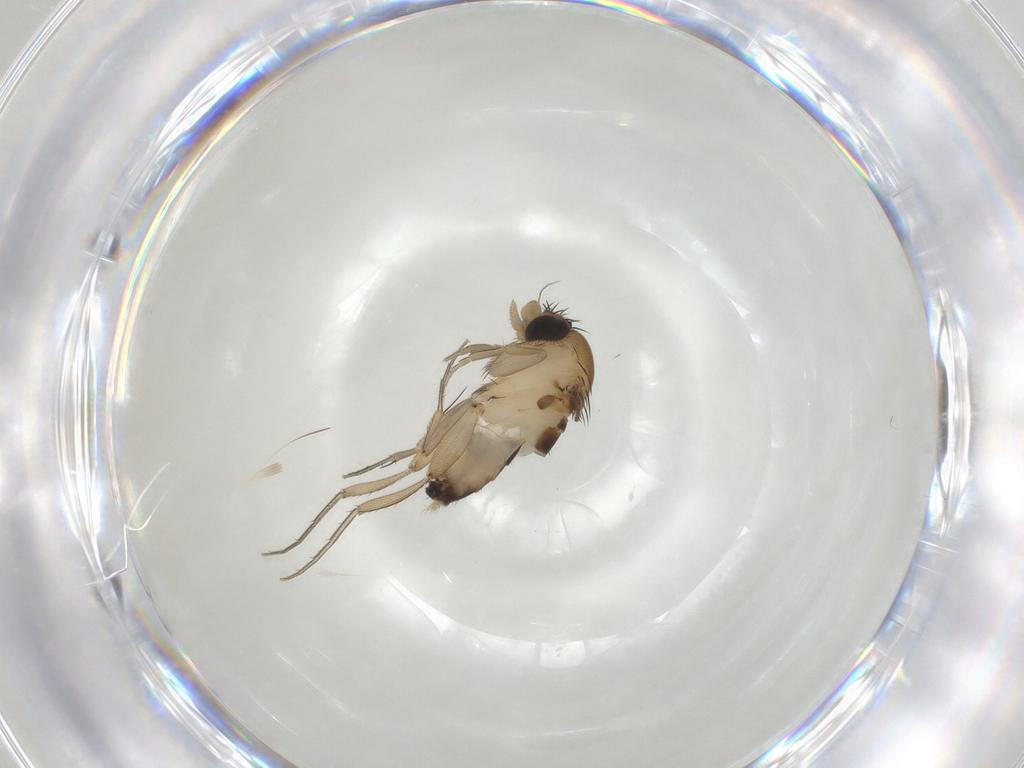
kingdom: Animalia
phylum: Arthropoda
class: Insecta
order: Diptera
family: Phoridae
